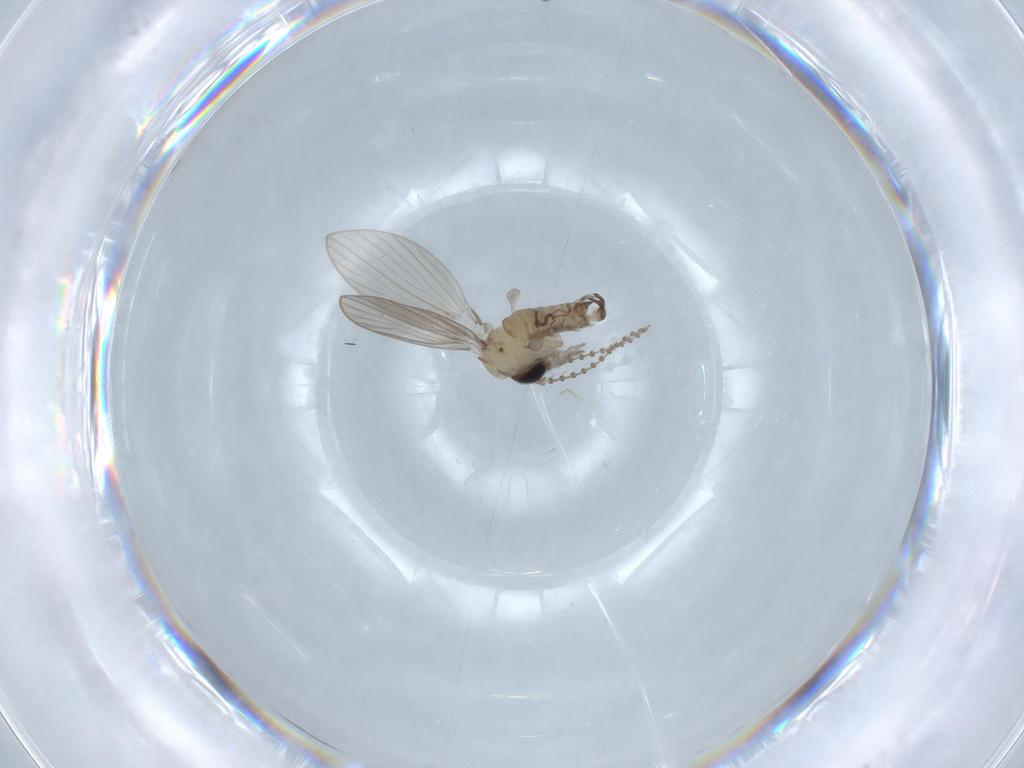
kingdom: Animalia
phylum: Arthropoda
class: Insecta
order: Diptera
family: Psychodidae
